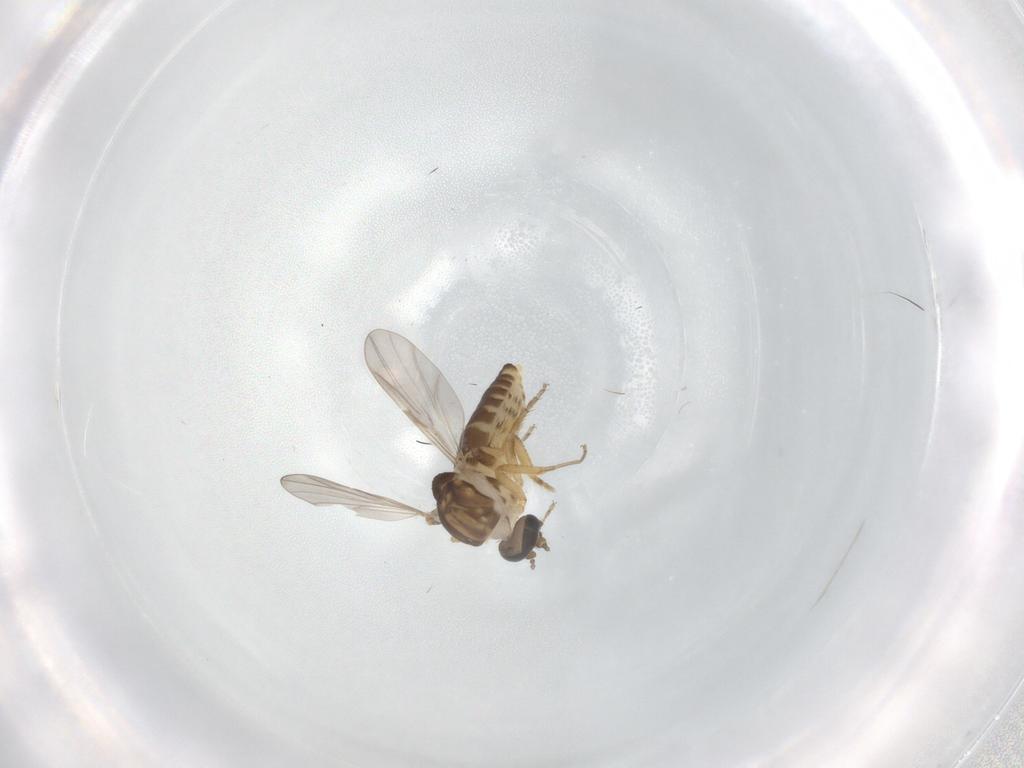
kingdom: Animalia
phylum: Arthropoda
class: Insecta
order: Diptera
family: Ceratopogonidae
